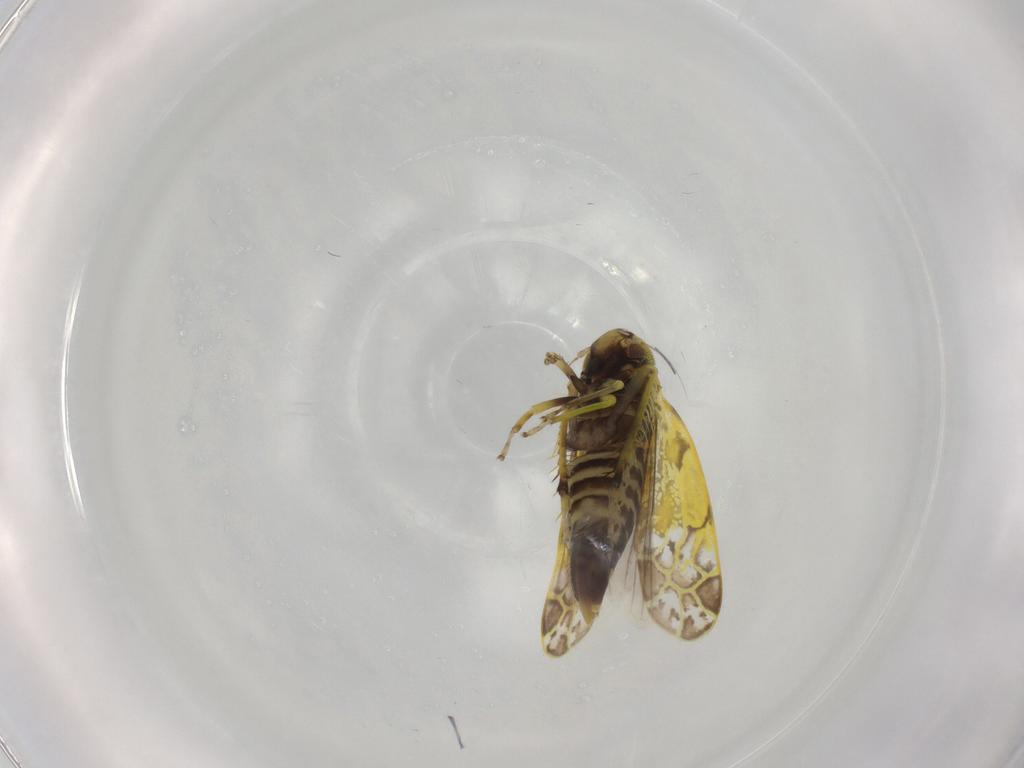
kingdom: Animalia
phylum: Arthropoda
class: Insecta
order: Hemiptera
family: Cicadellidae
